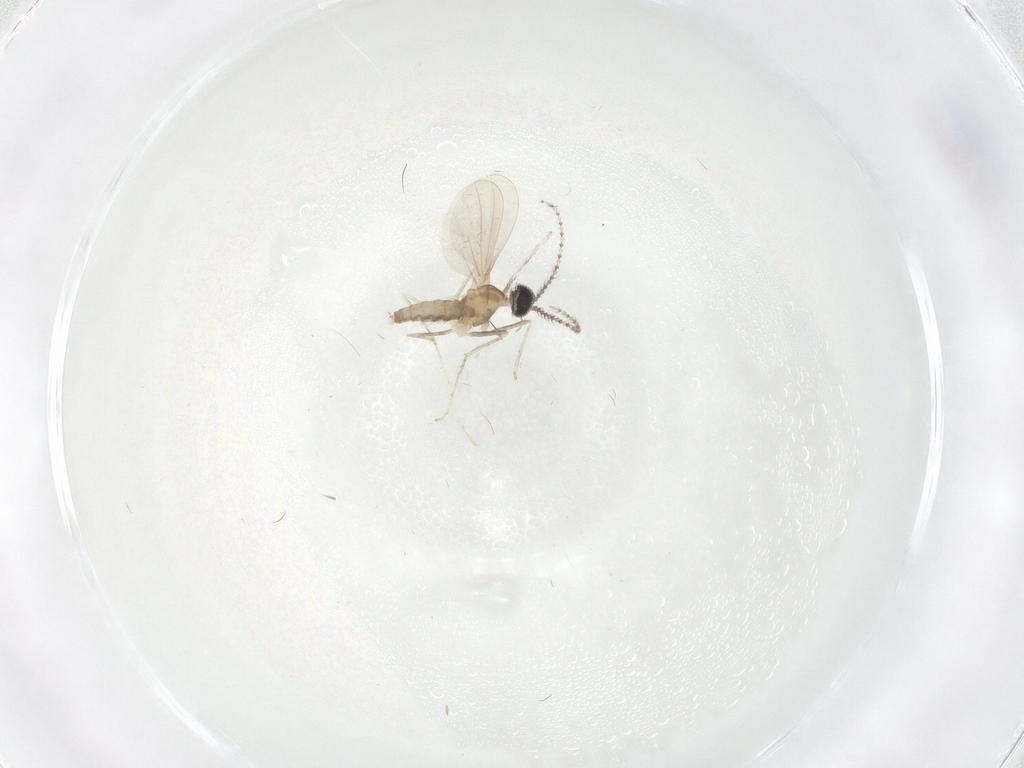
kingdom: Animalia
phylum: Arthropoda
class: Insecta
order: Diptera
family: Cecidomyiidae
